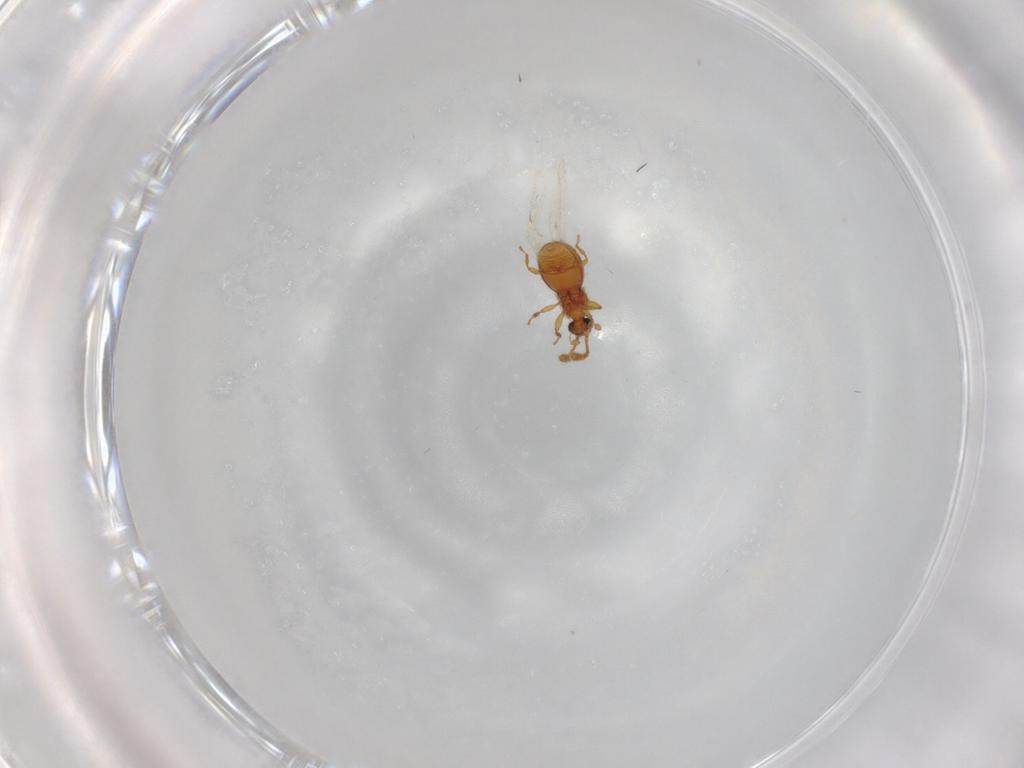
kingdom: Animalia
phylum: Arthropoda
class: Insecta
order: Coleoptera
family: Staphylinidae
